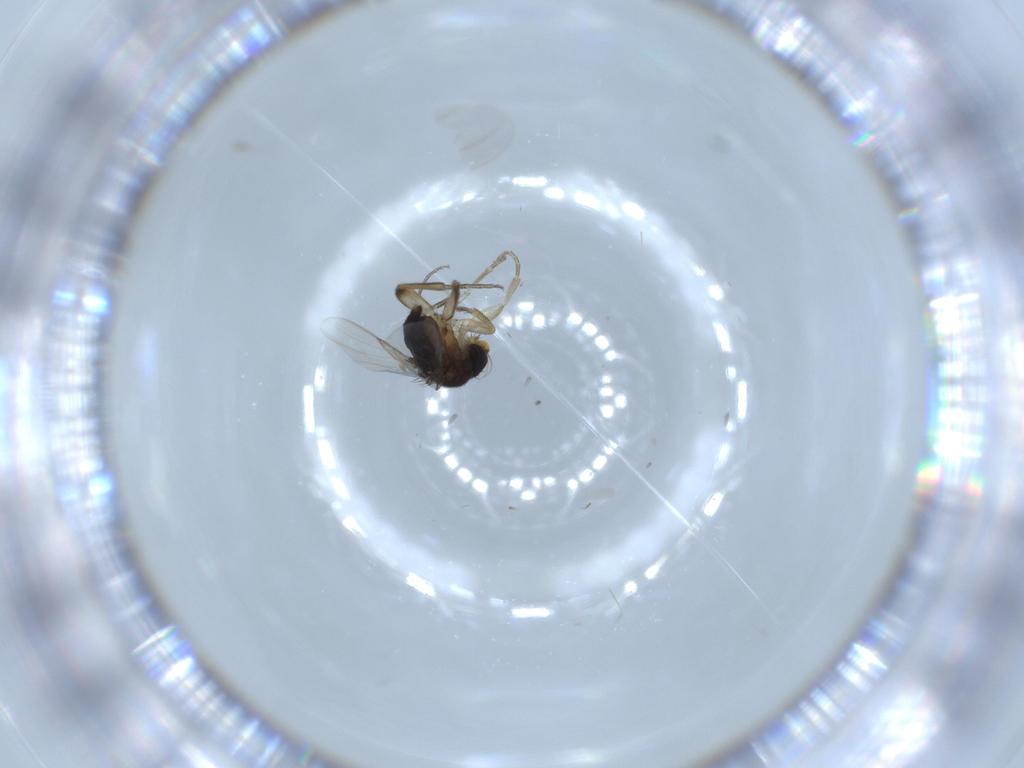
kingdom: Animalia
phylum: Arthropoda
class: Insecta
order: Diptera
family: Phoridae
